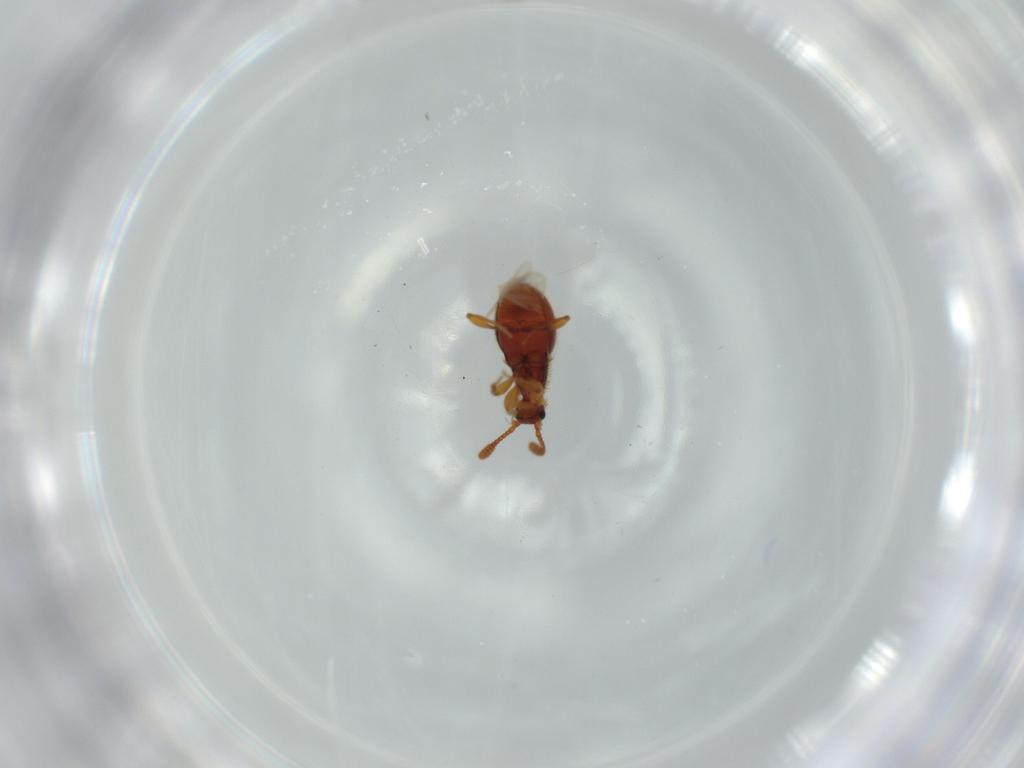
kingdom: Animalia
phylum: Arthropoda
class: Insecta
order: Coleoptera
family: Staphylinidae
